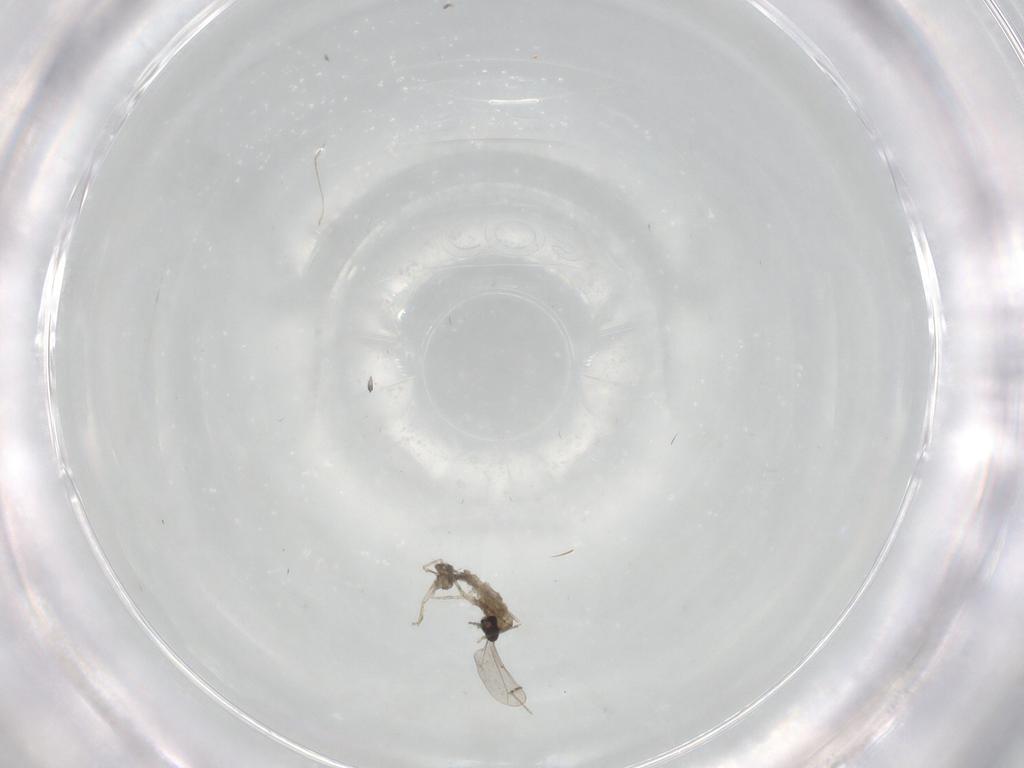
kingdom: Animalia
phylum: Arthropoda
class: Insecta
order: Diptera
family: Cecidomyiidae
